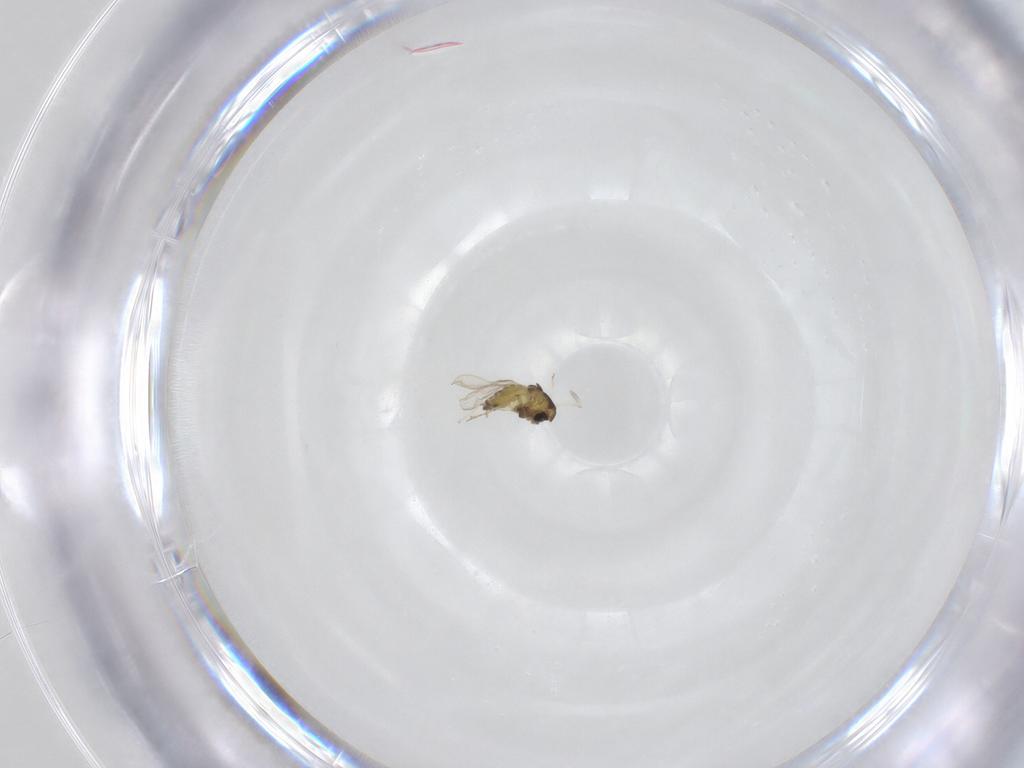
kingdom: Animalia
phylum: Arthropoda
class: Insecta
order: Diptera
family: Chironomidae
